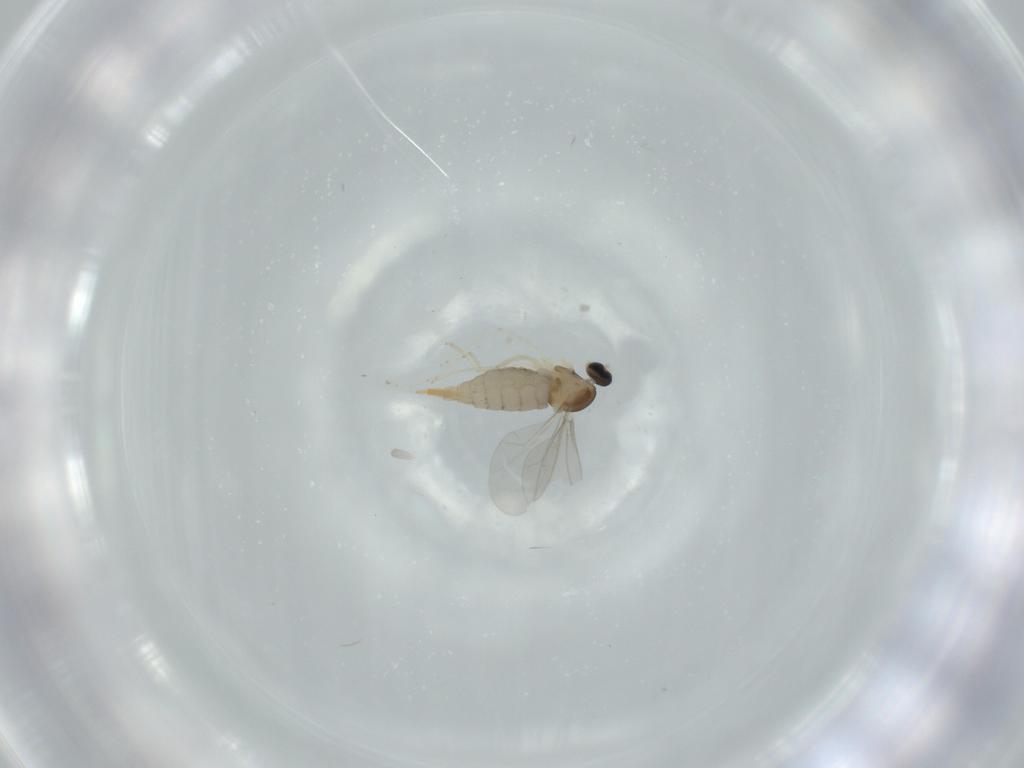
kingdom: Animalia
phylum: Arthropoda
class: Insecta
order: Diptera
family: Cecidomyiidae
